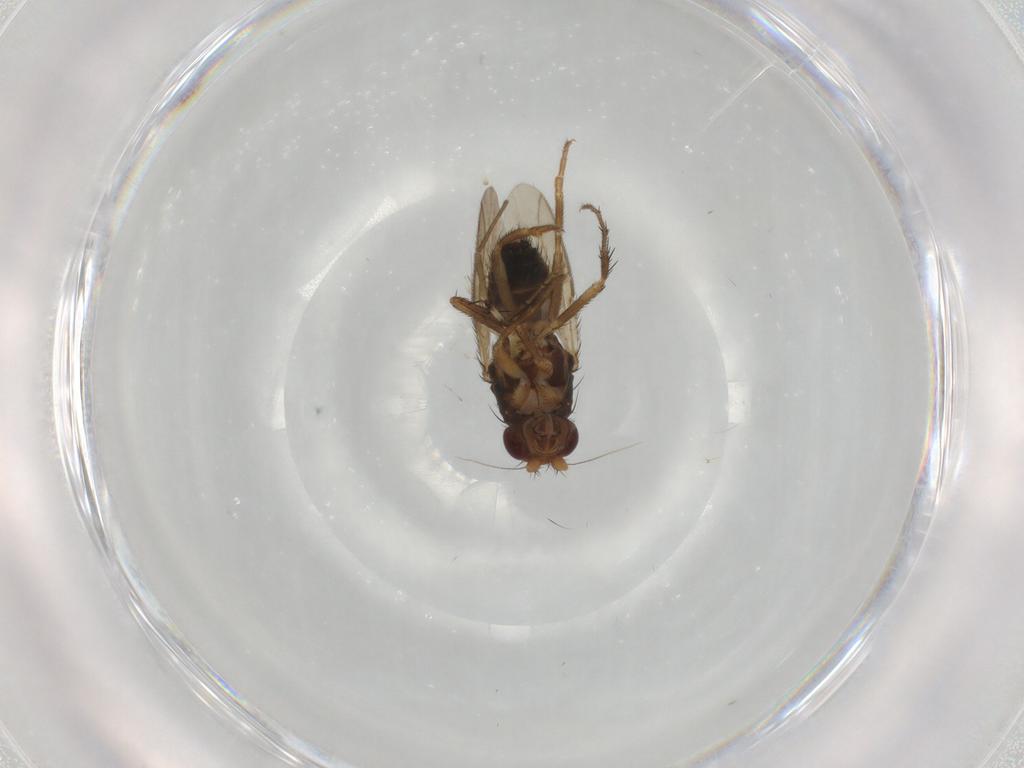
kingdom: Animalia
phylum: Arthropoda
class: Insecta
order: Diptera
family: Sphaeroceridae
